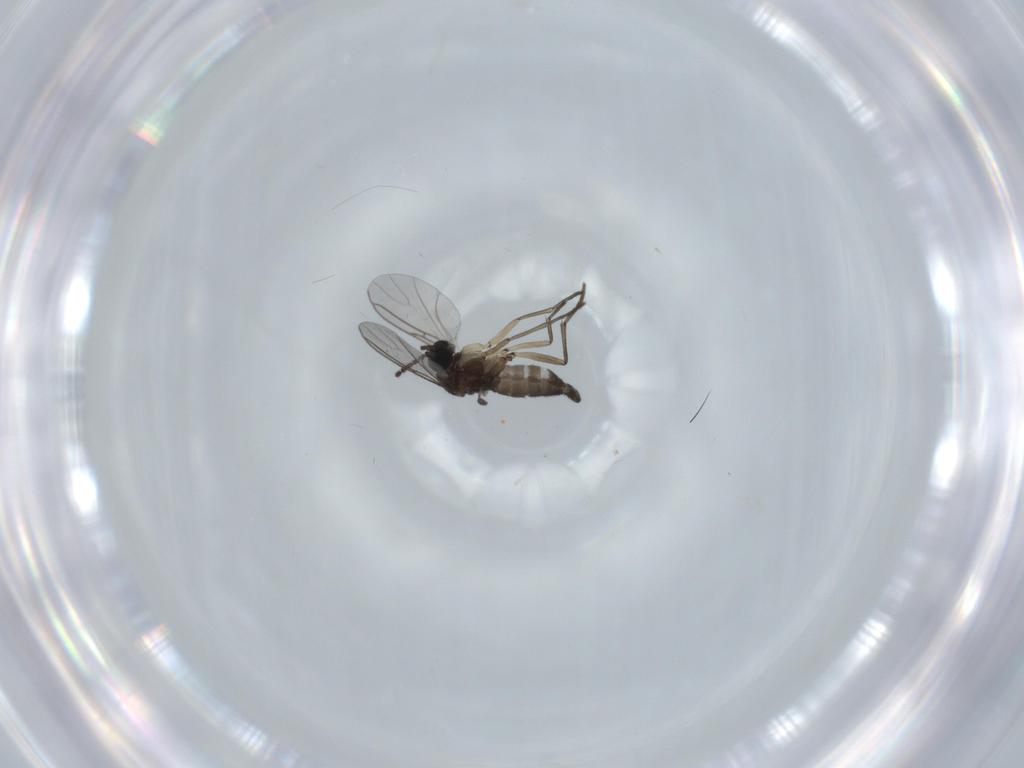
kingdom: Animalia
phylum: Arthropoda
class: Insecta
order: Diptera
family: Sciaridae
